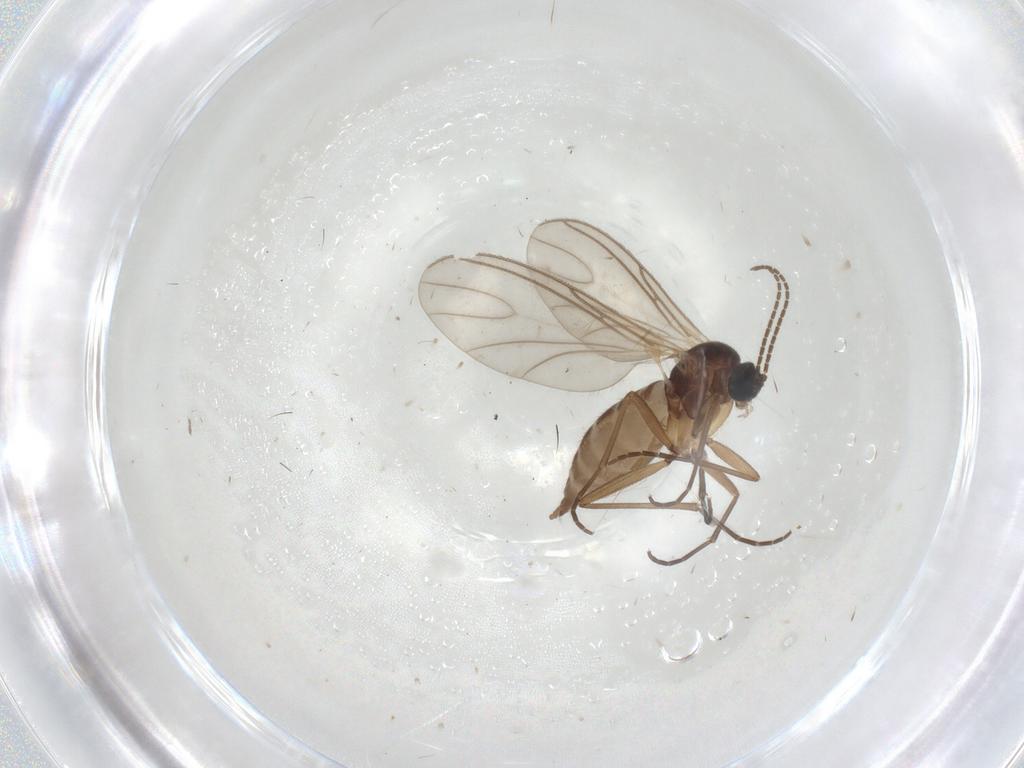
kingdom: Animalia
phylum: Arthropoda
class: Insecta
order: Diptera
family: Sciaridae
